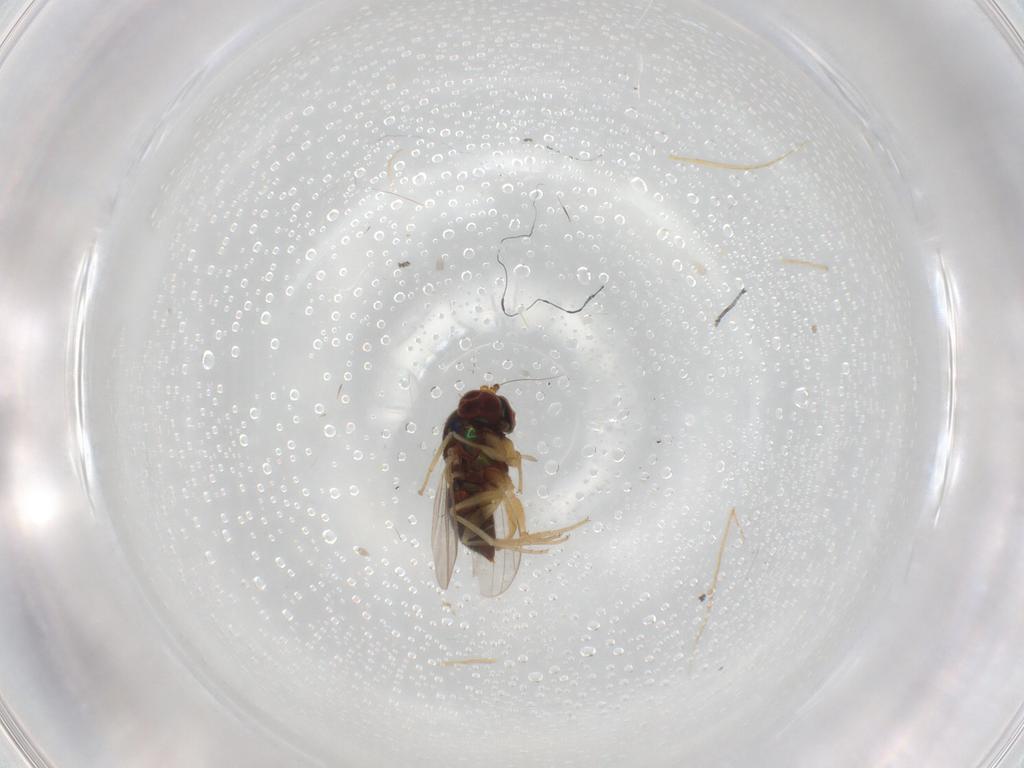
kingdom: Animalia
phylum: Arthropoda
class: Insecta
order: Diptera
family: Dolichopodidae
